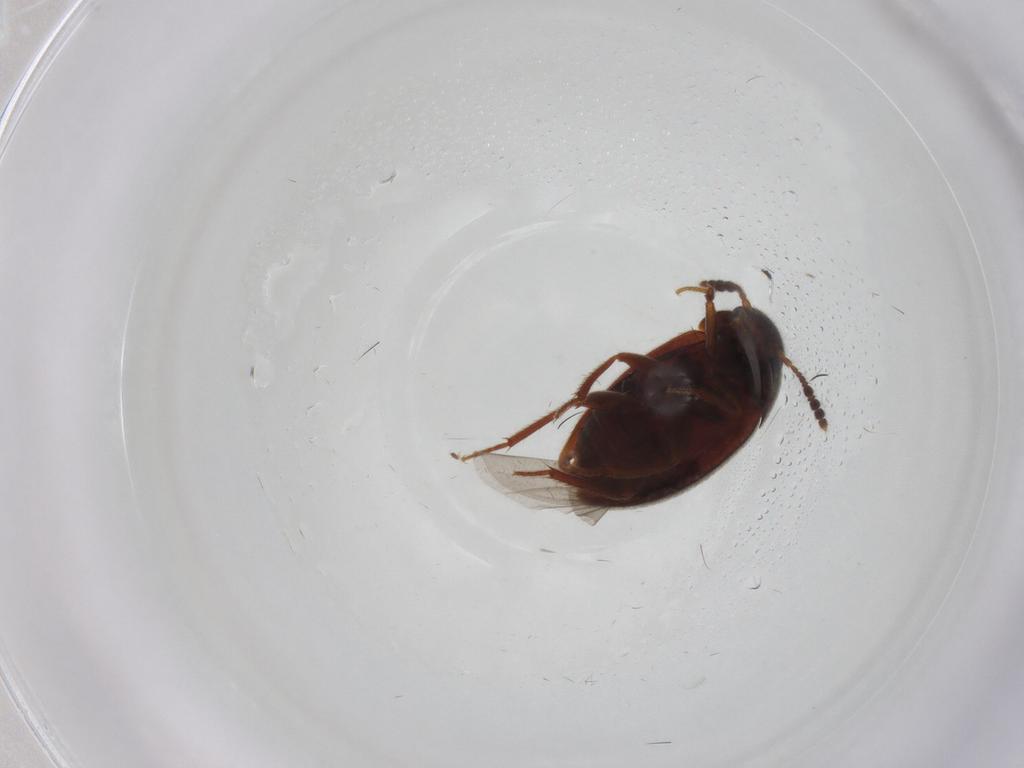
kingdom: Animalia
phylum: Arthropoda
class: Insecta
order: Coleoptera
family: Leiodidae
